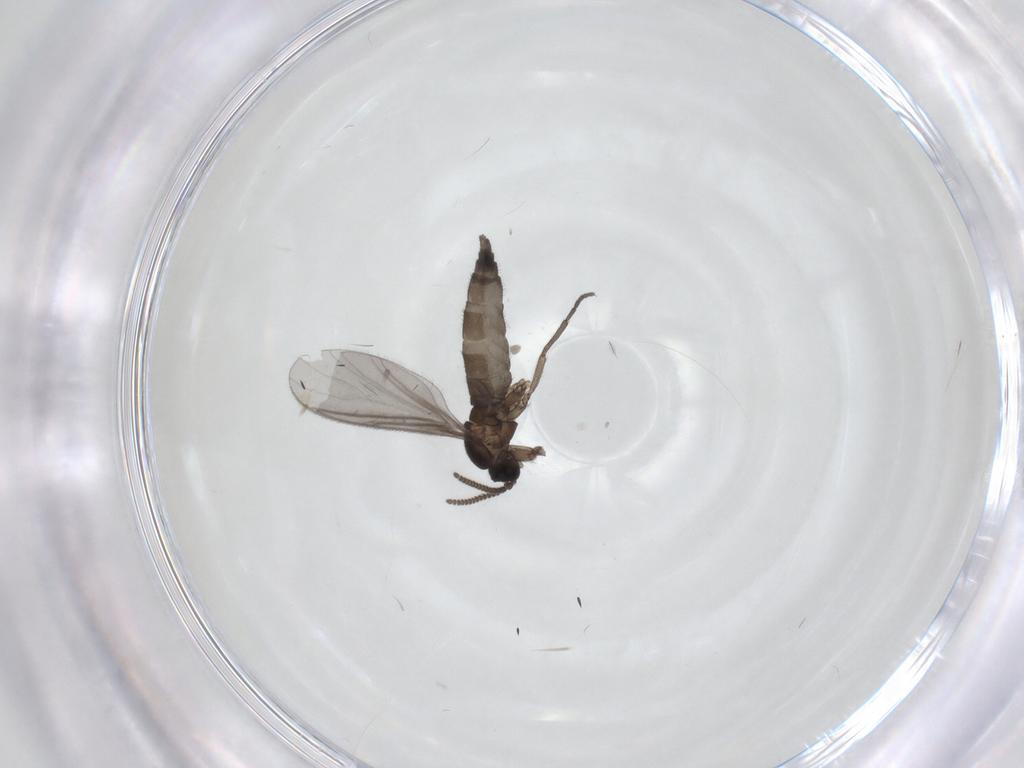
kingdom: Animalia
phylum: Arthropoda
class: Insecta
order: Diptera
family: Sciaridae
